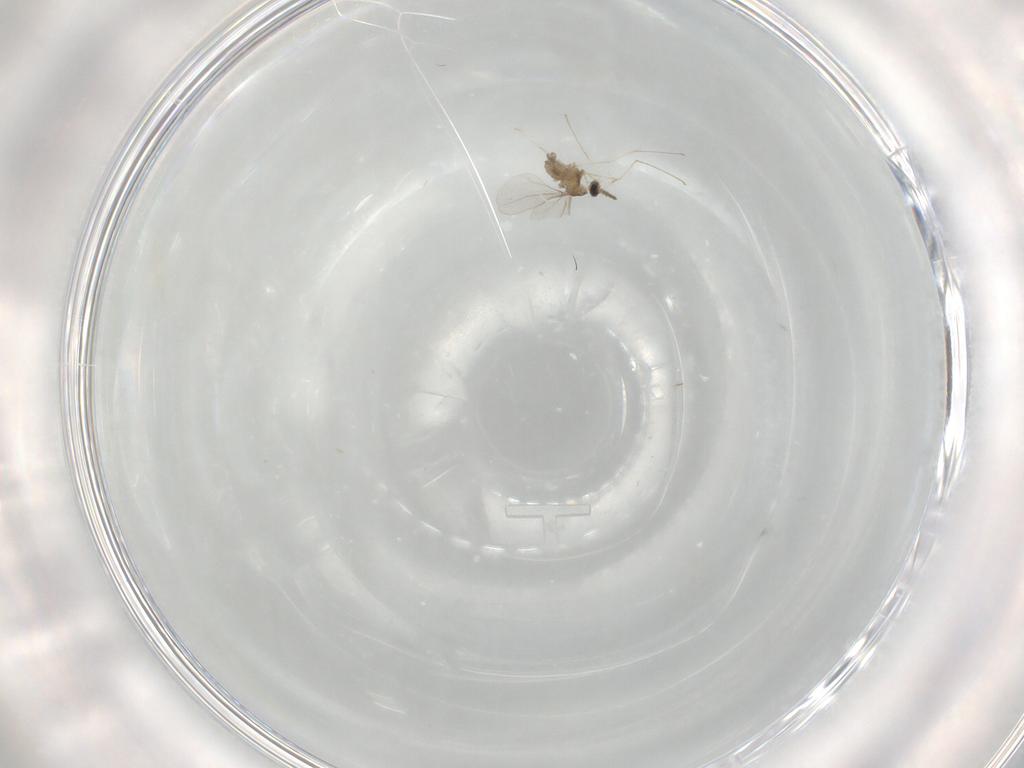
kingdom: Animalia
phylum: Arthropoda
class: Insecta
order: Diptera
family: Cecidomyiidae
